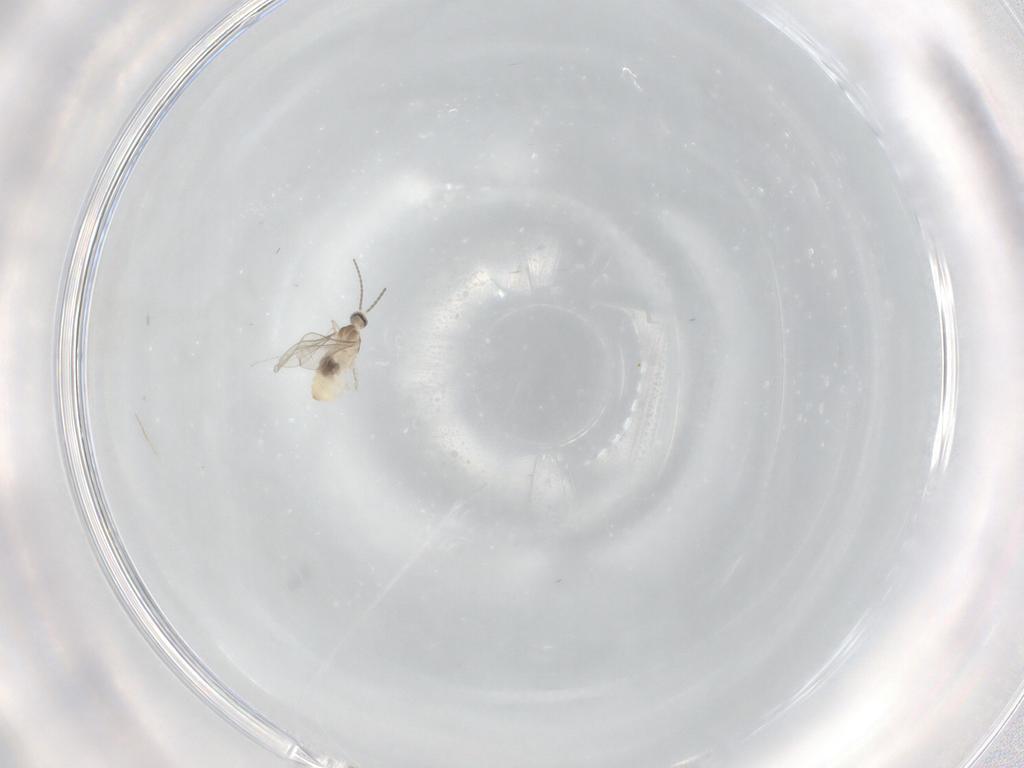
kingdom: Animalia
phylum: Arthropoda
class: Insecta
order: Diptera
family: Cecidomyiidae
